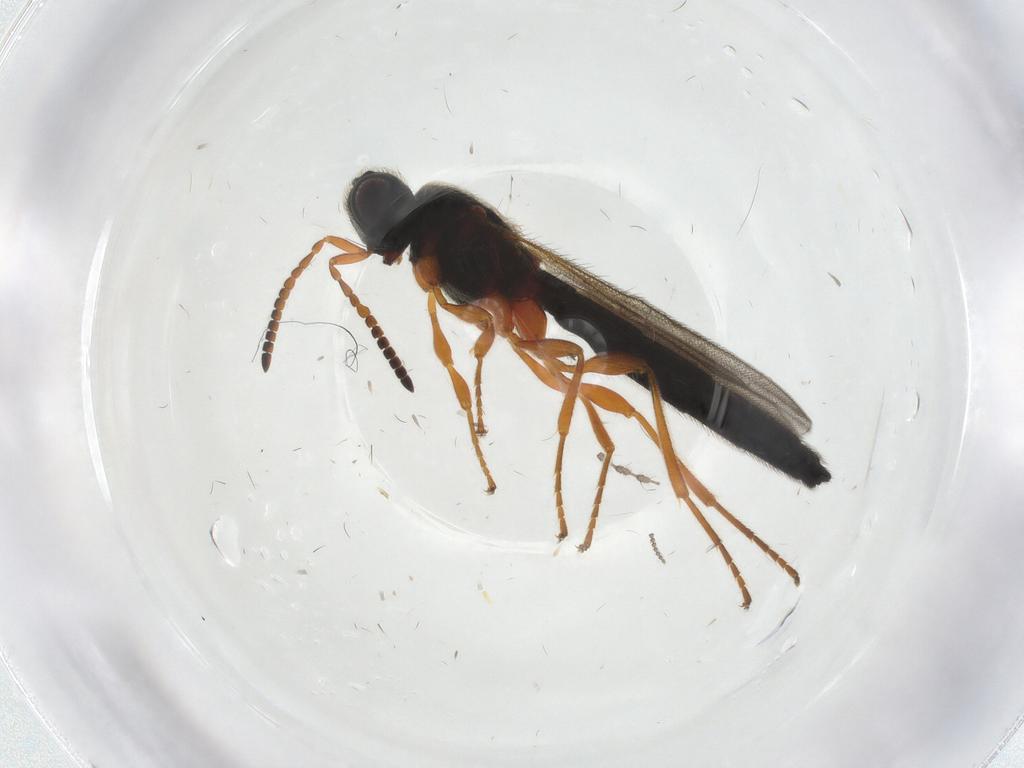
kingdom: Animalia
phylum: Arthropoda
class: Insecta
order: Hymenoptera
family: Scelionidae
